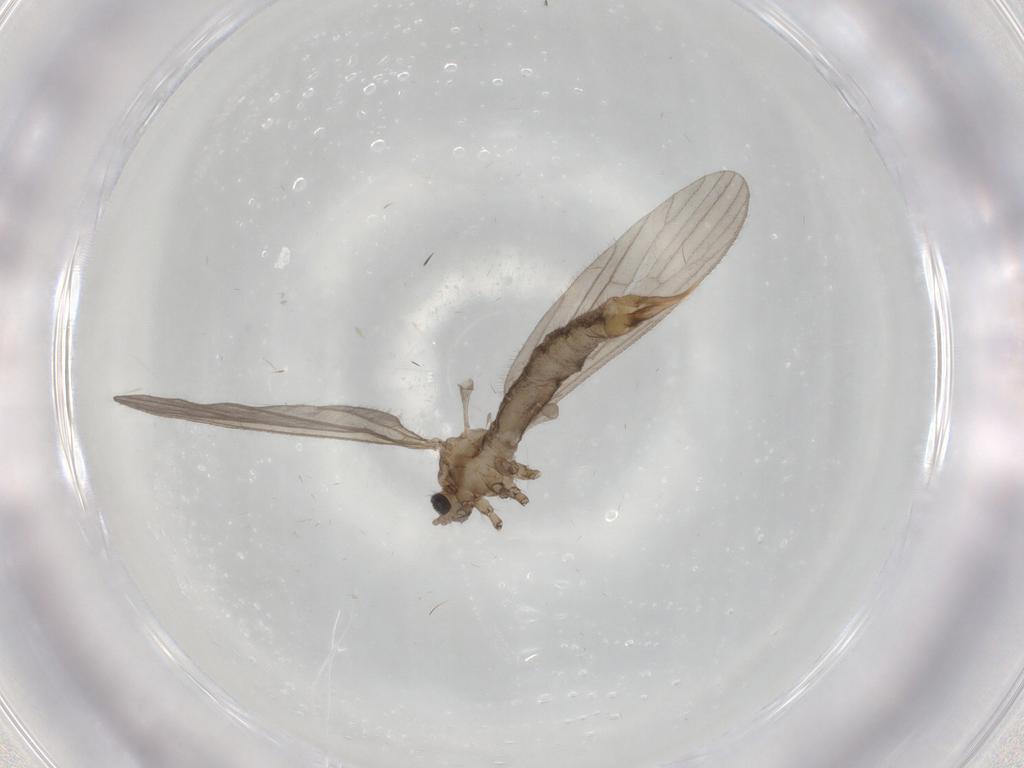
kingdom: Animalia
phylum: Arthropoda
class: Insecta
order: Diptera
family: Limoniidae
